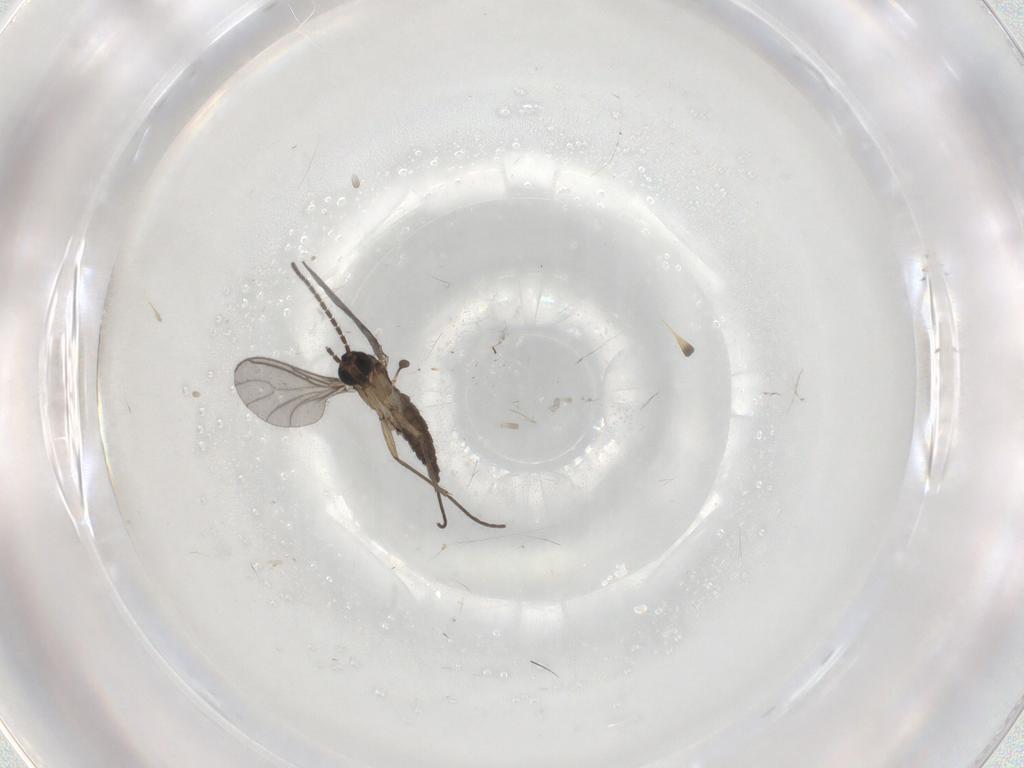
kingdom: Animalia
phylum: Arthropoda
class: Insecta
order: Diptera
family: Sciaridae
